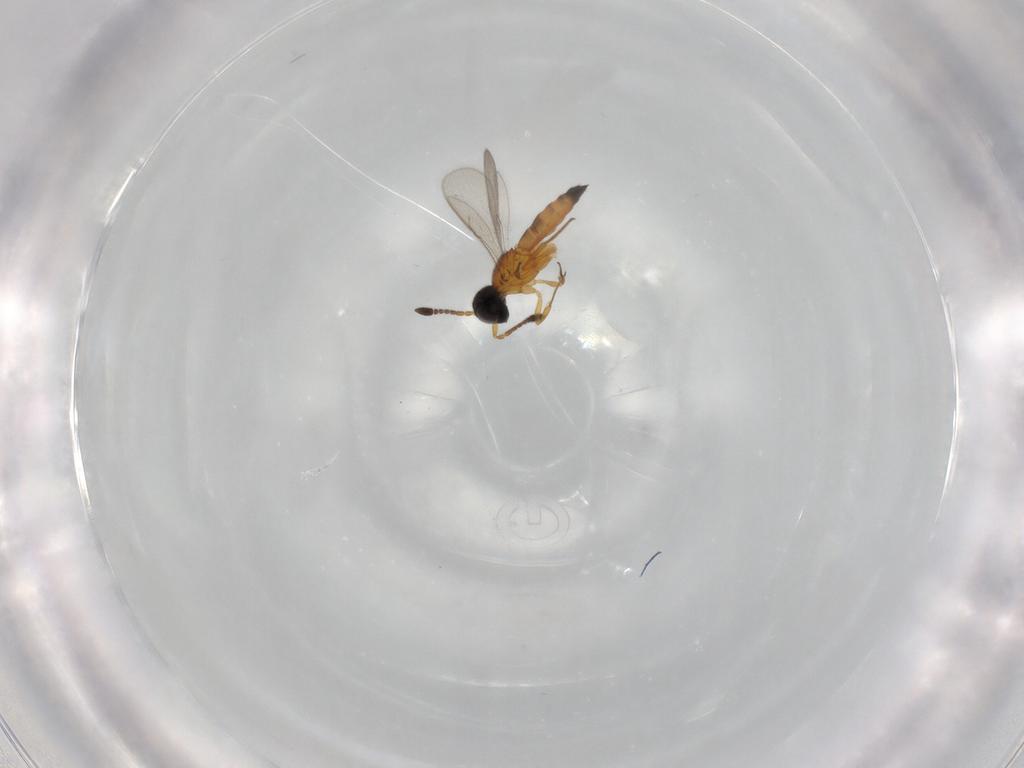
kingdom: Animalia
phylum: Arthropoda
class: Insecta
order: Hymenoptera
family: Scelionidae
